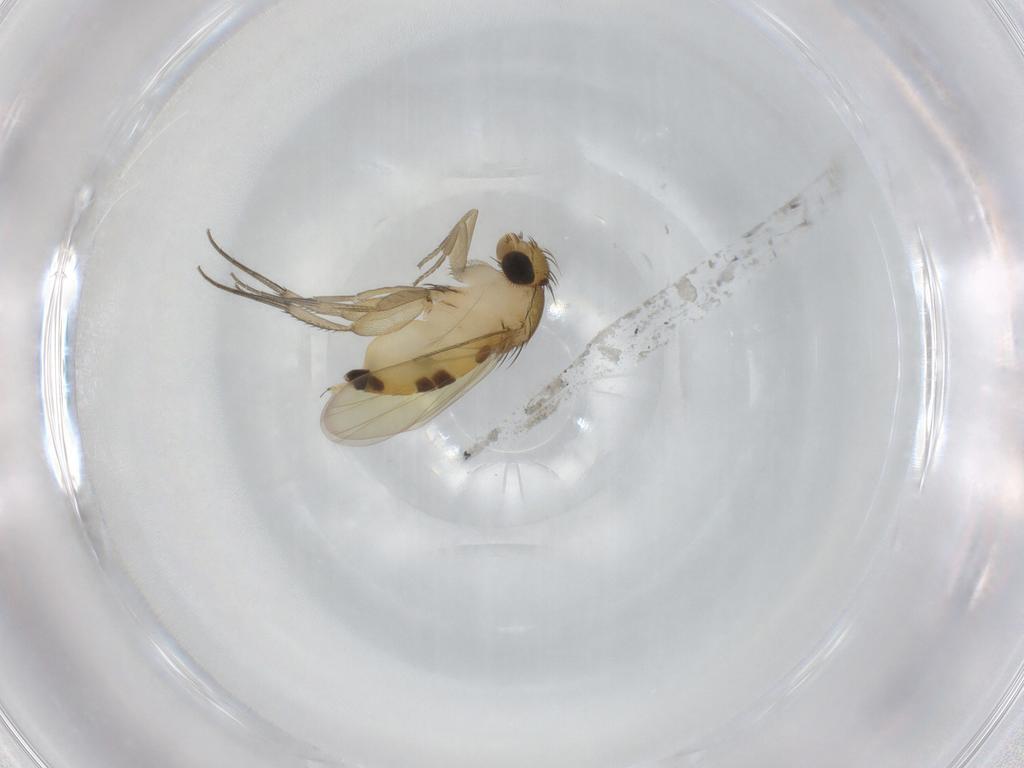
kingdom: Animalia
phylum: Arthropoda
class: Insecta
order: Diptera
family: Phoridae
